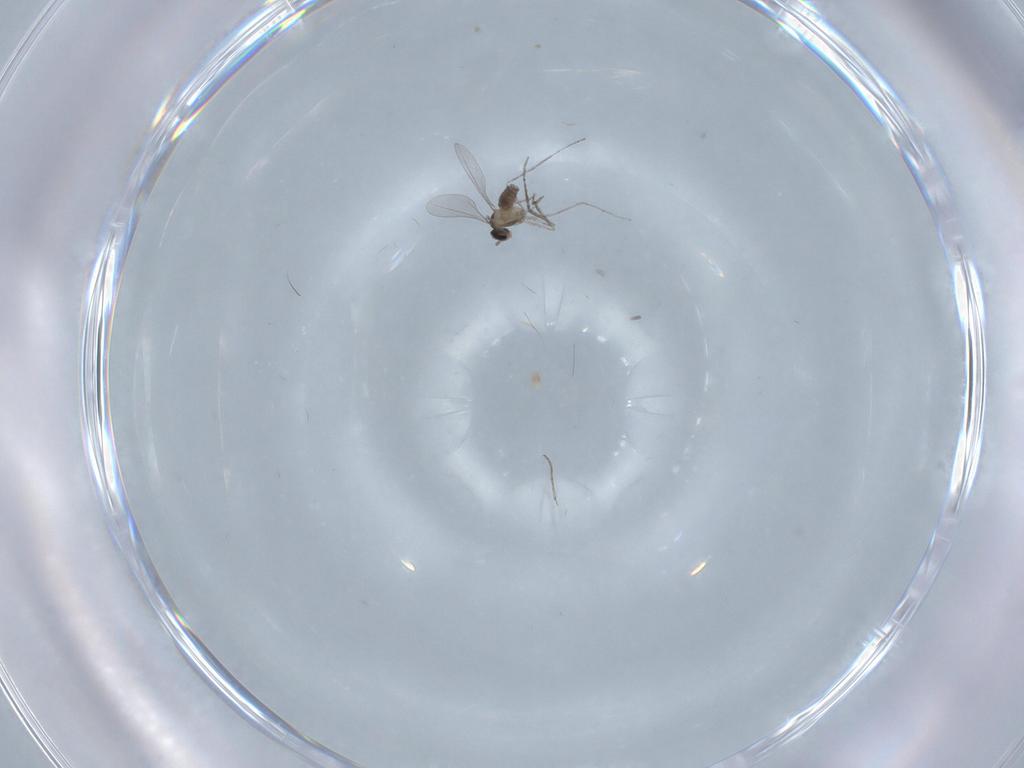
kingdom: Animalia
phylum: Arthropoda
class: Insecta
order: Diptera
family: Cecidomyiidae
